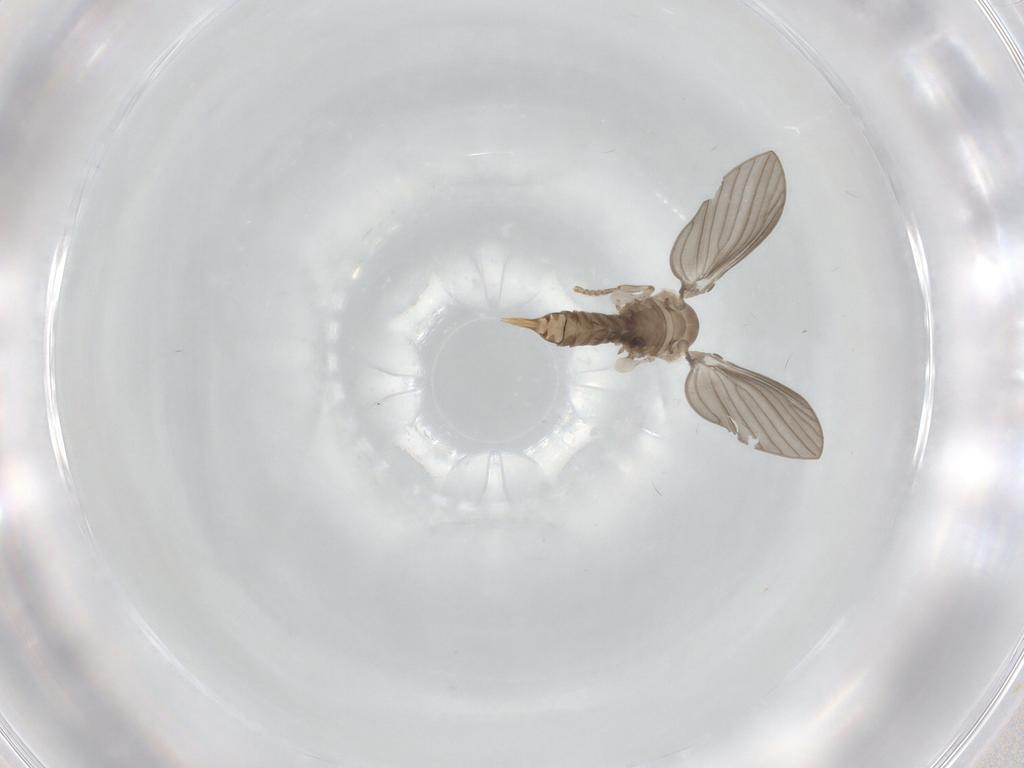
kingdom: Animalia
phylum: Arthropoda
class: Insecta
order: Diptera
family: Psychodidae
